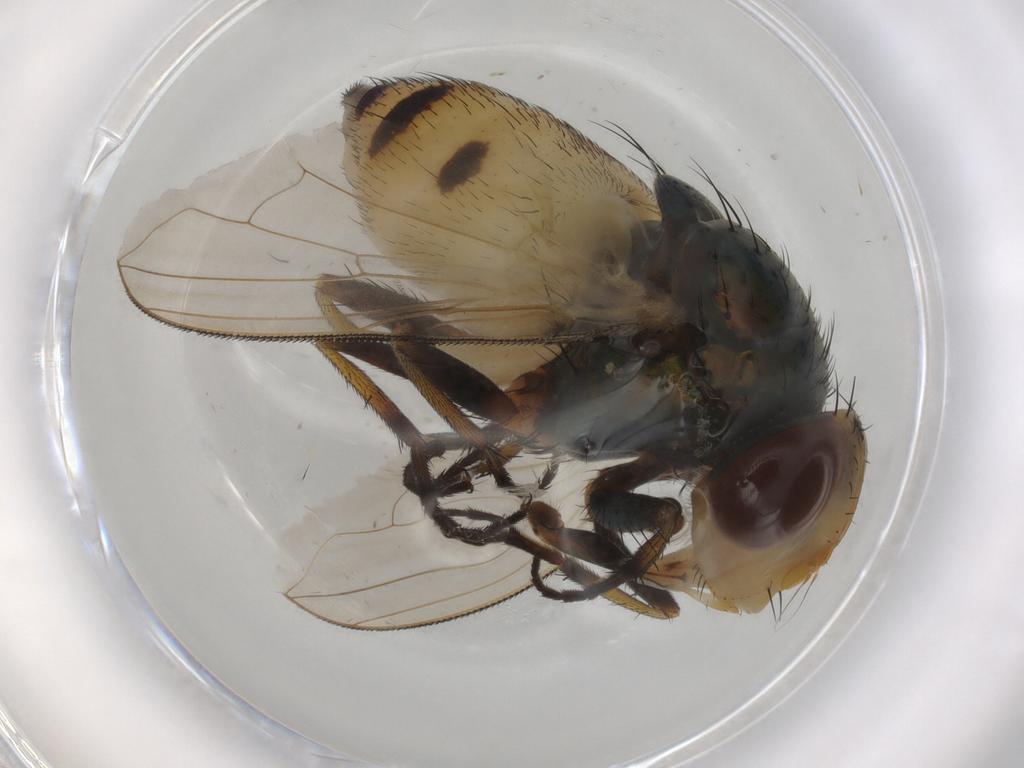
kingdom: Animalia
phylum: Arthropoda
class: Insecta
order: Diptera
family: Calliphoridae
